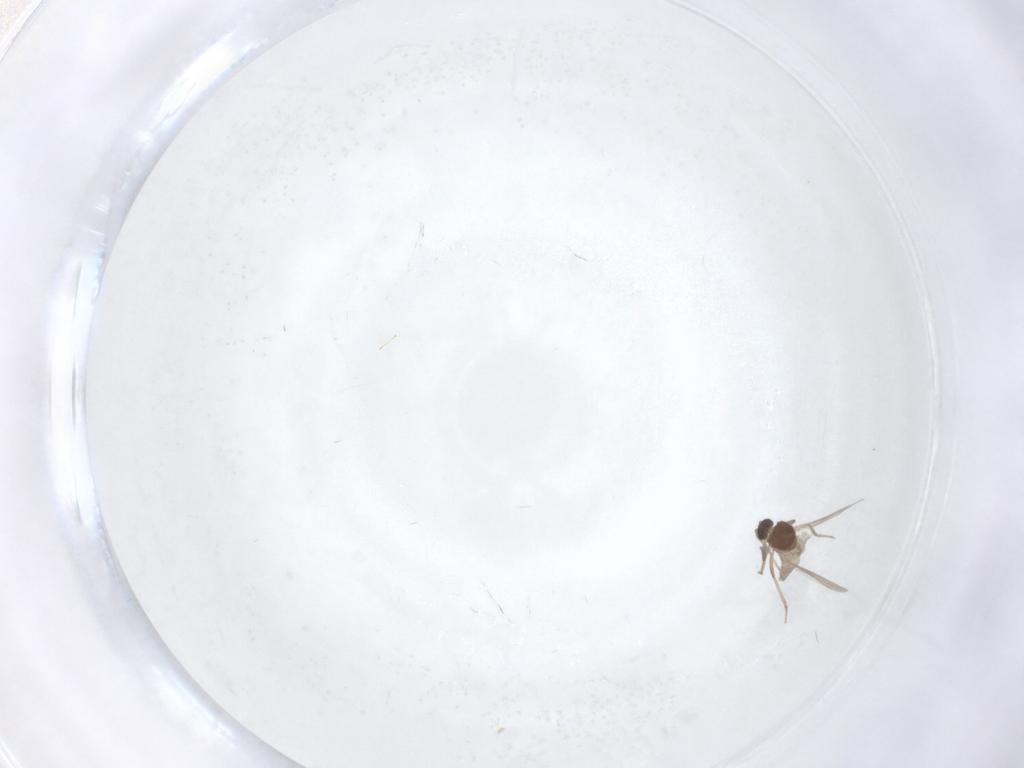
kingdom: Animalia
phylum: Arthropoda
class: Insecta
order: Diptera
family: Ceratopogonidae
